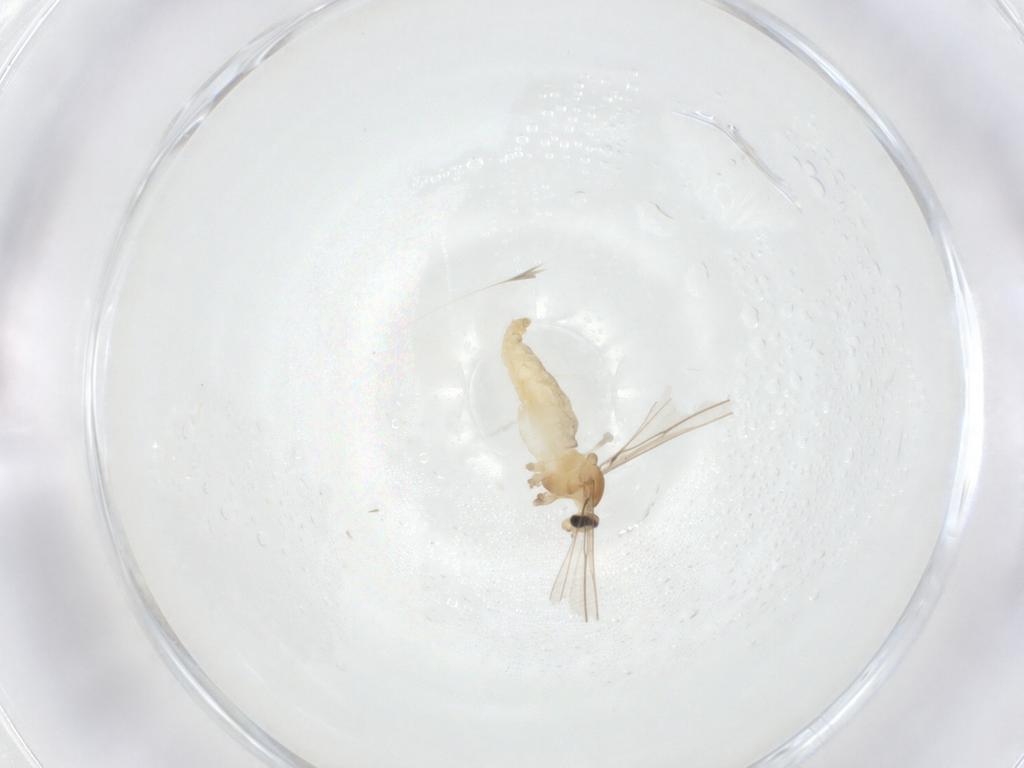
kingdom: Animalia
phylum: Arthropoda
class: Insecta
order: Diptera
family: Cecidomyiidae
